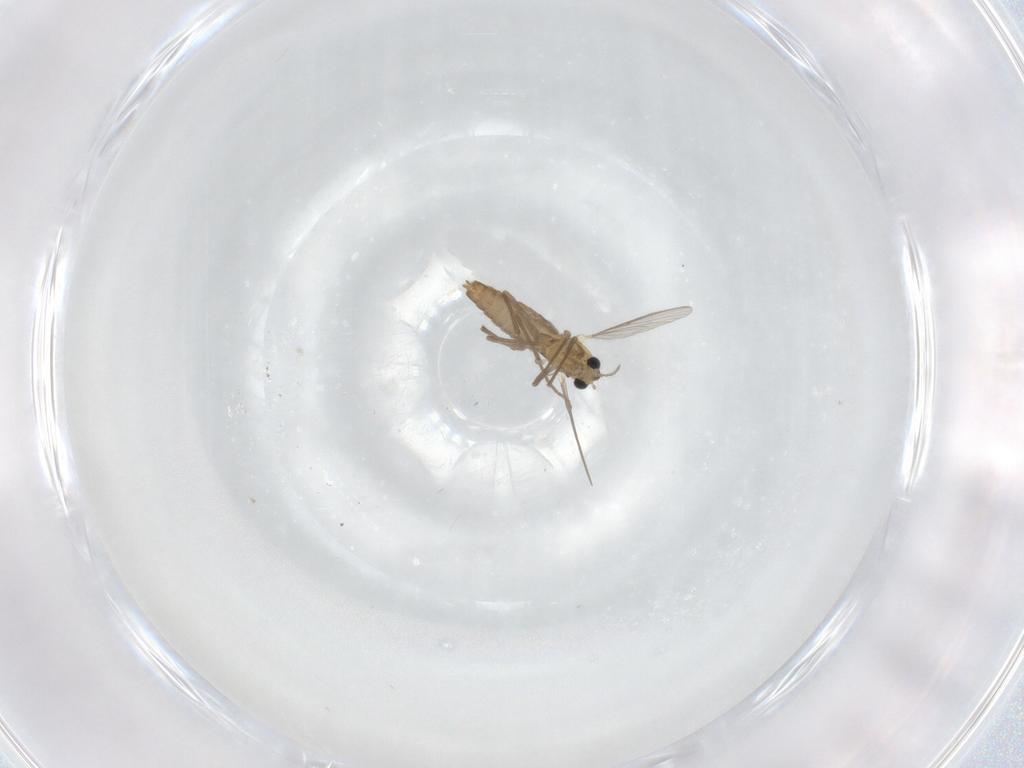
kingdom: Animalia
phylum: Arthropoda
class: Insecta
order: Diptera
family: Chironomidae
